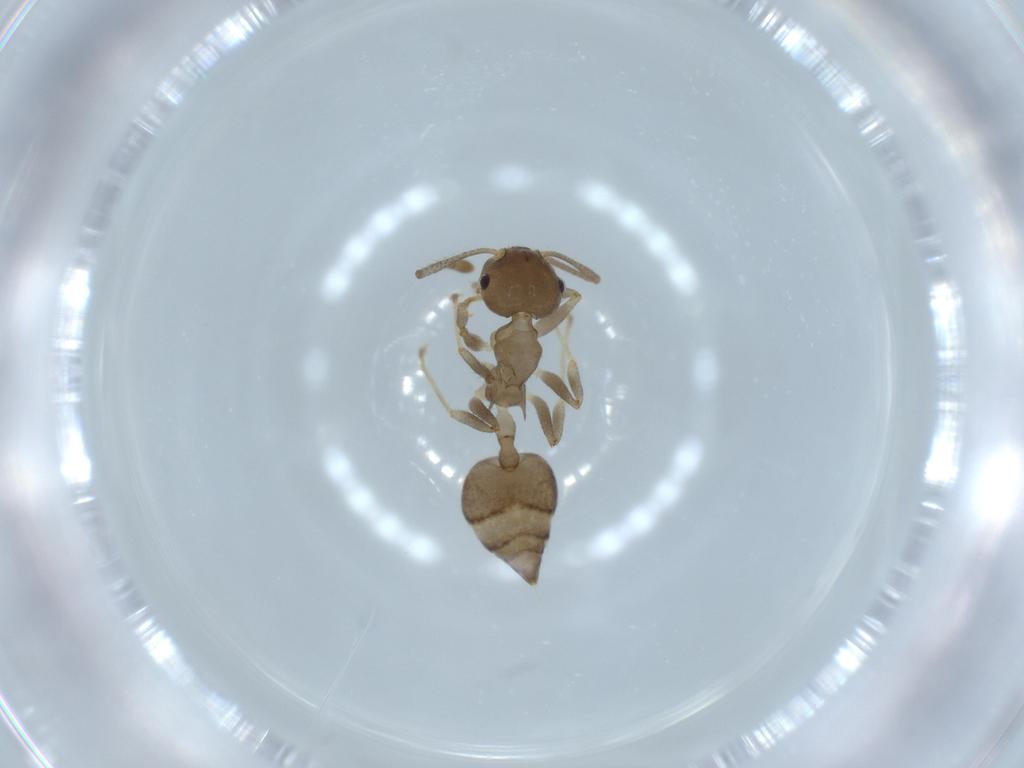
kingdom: Animalia
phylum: Arthropoda
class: Insecta
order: Hymenoptera
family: Formicidae
